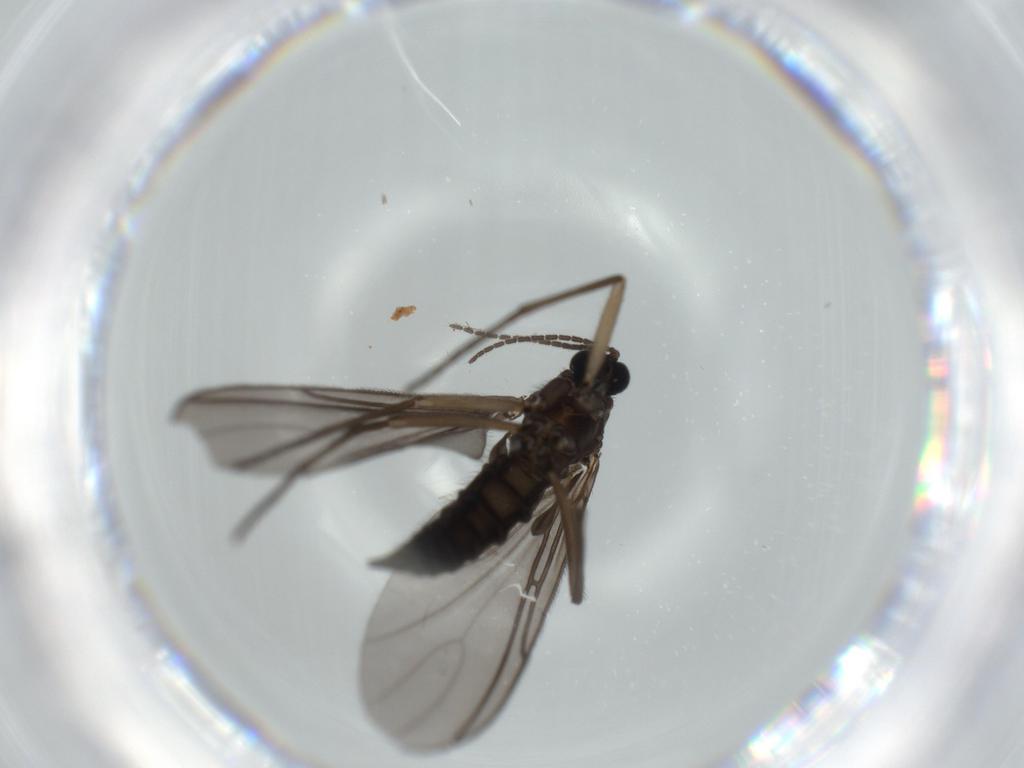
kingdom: Animalia
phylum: Arthropoda
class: Insecta
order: Diptera
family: Sciaridae
